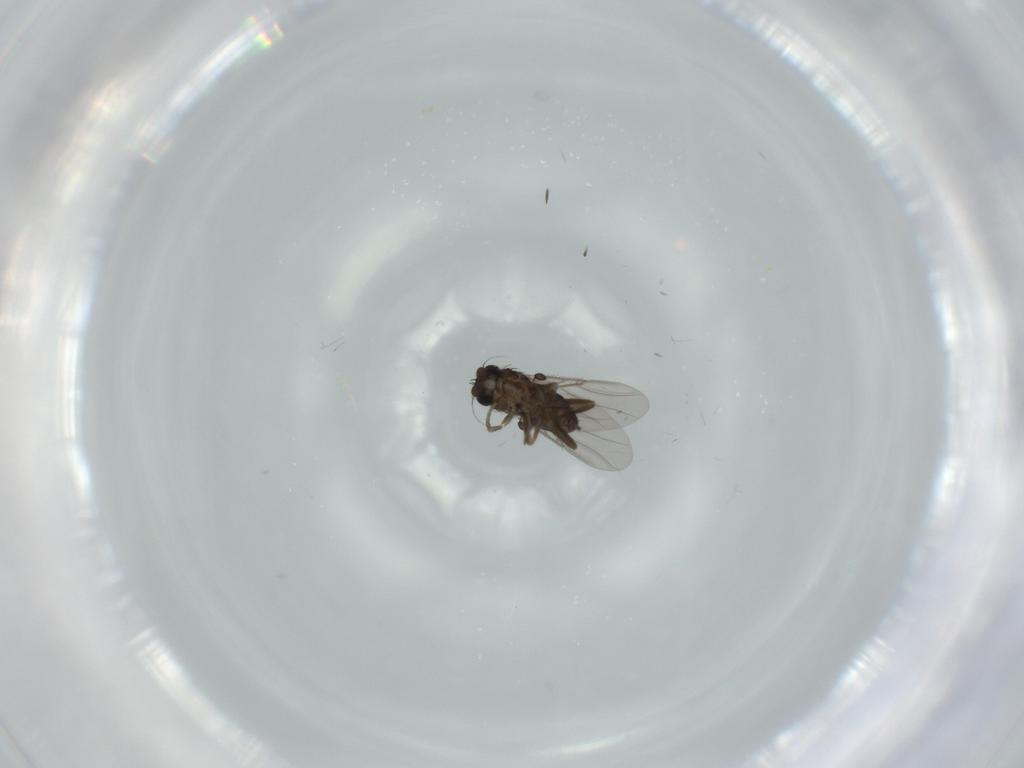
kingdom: Animalia
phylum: Arthropoda
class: Insecta
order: Diptera
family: Phoridae
